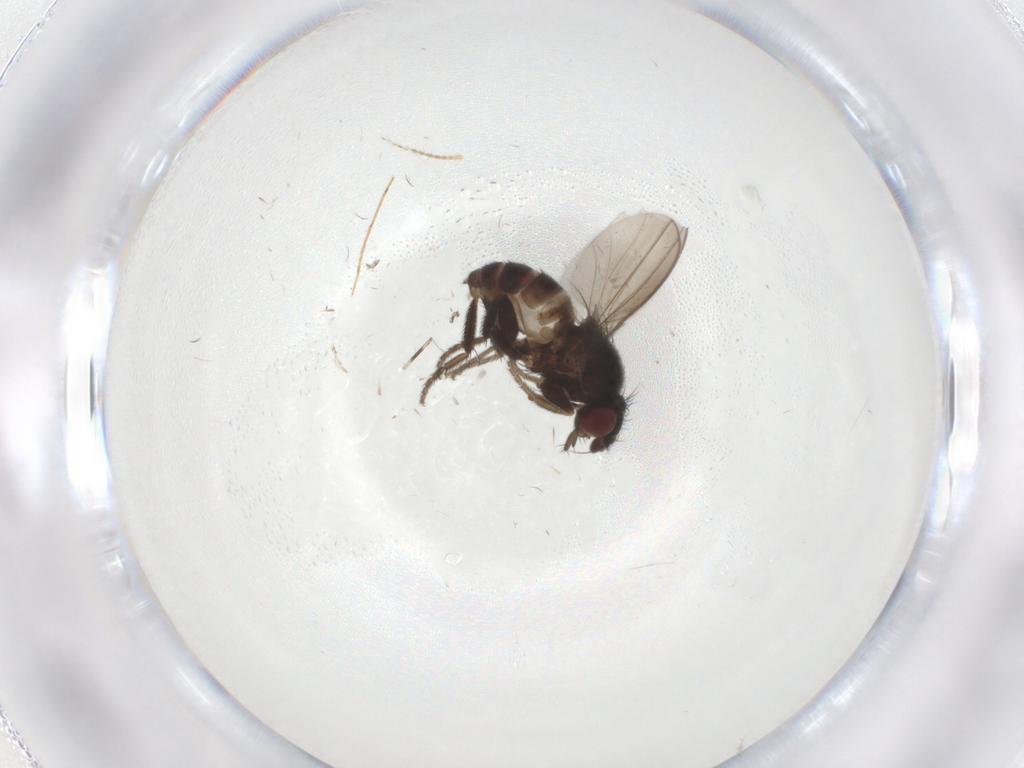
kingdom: Animalia
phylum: Arthropoda
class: Insecta
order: Diptera
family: Milichiidae
